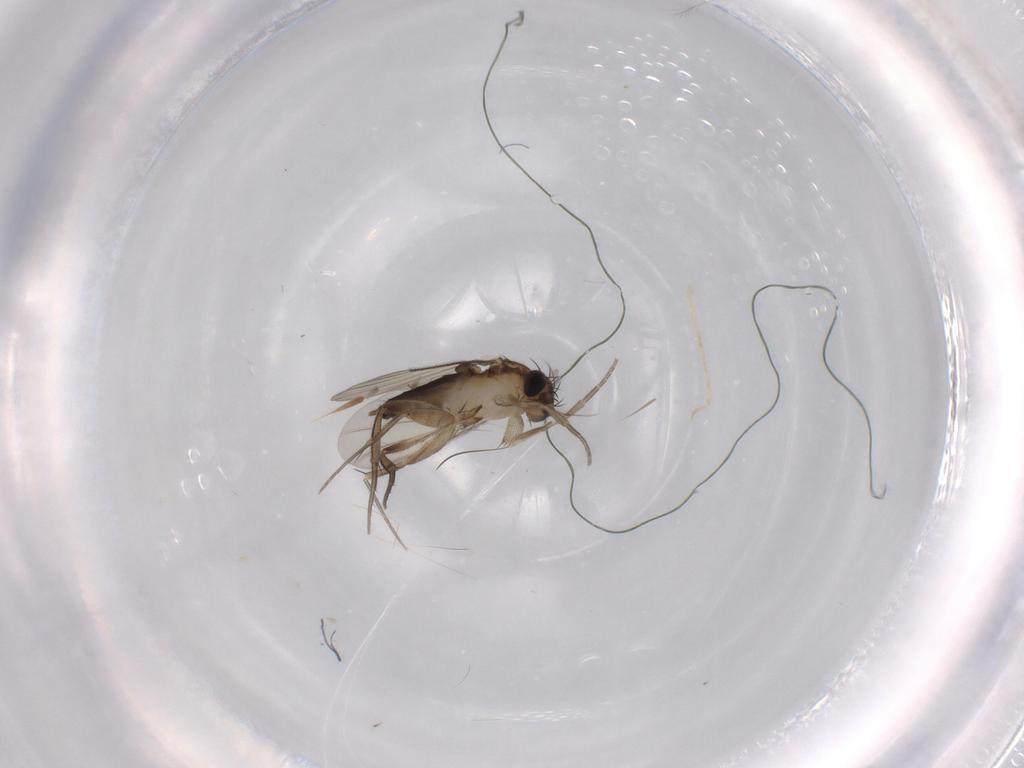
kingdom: Animalia
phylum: Arthropoda
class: Insecta
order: Diptera
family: Phoridae
